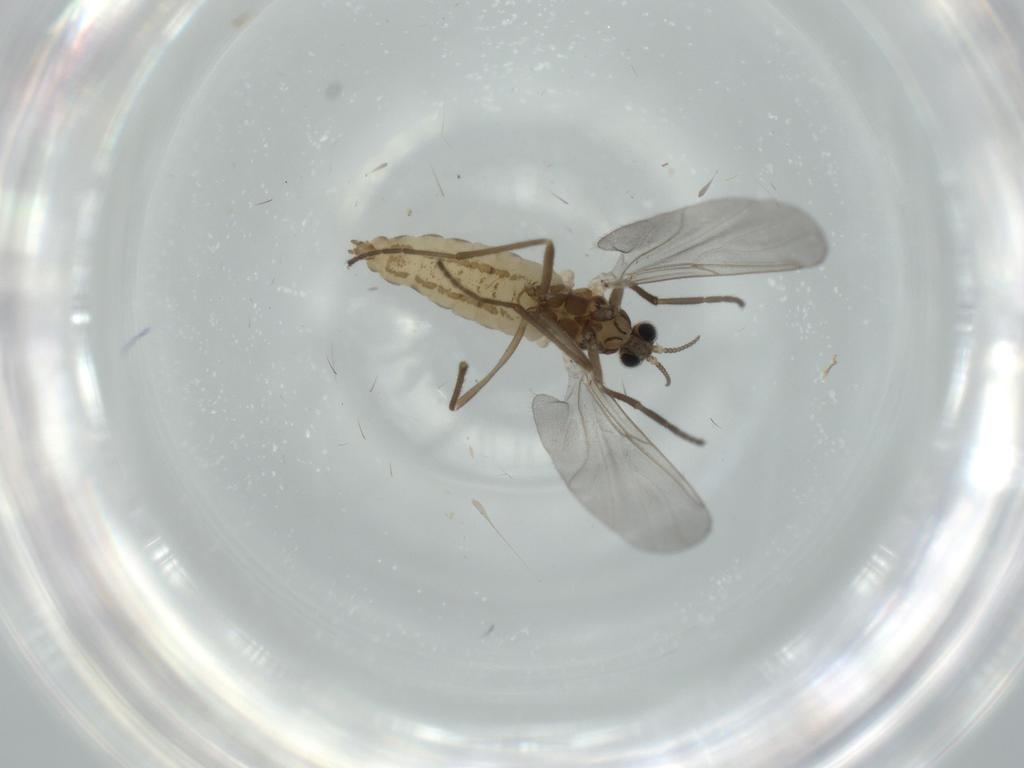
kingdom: Animalia
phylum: Arthropoda
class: Insecta
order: Diptera
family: Cecidomyiidae
